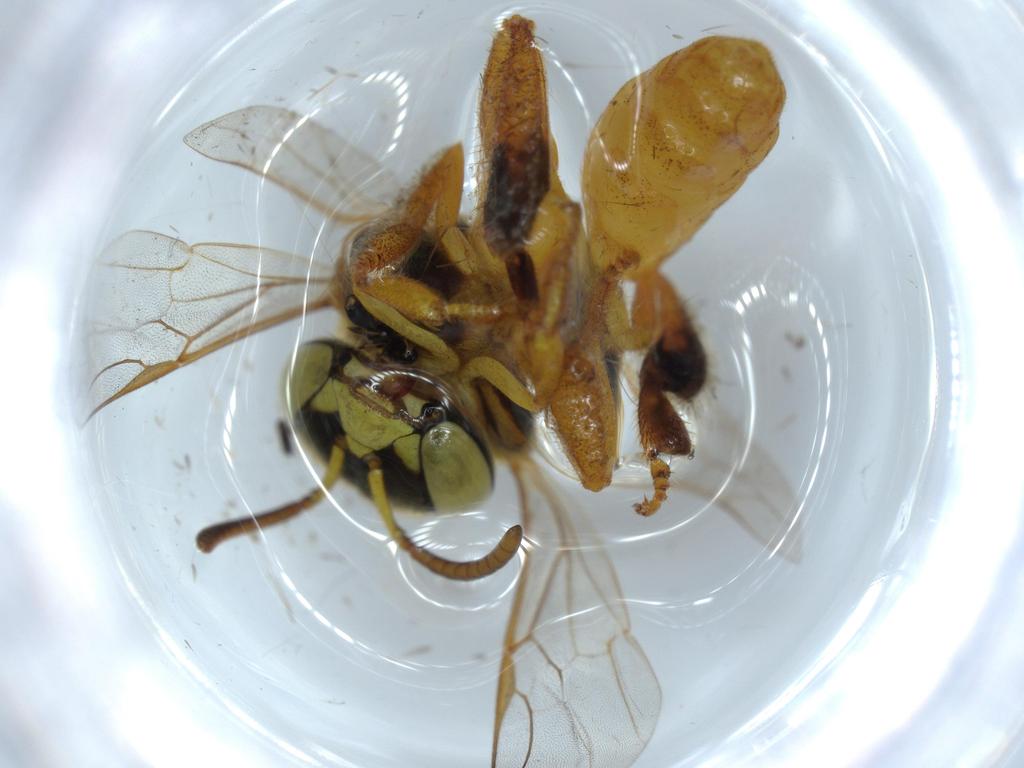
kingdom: Animalia
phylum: Arthropoda
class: Insecta
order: Hymenoptera
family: Apidae
